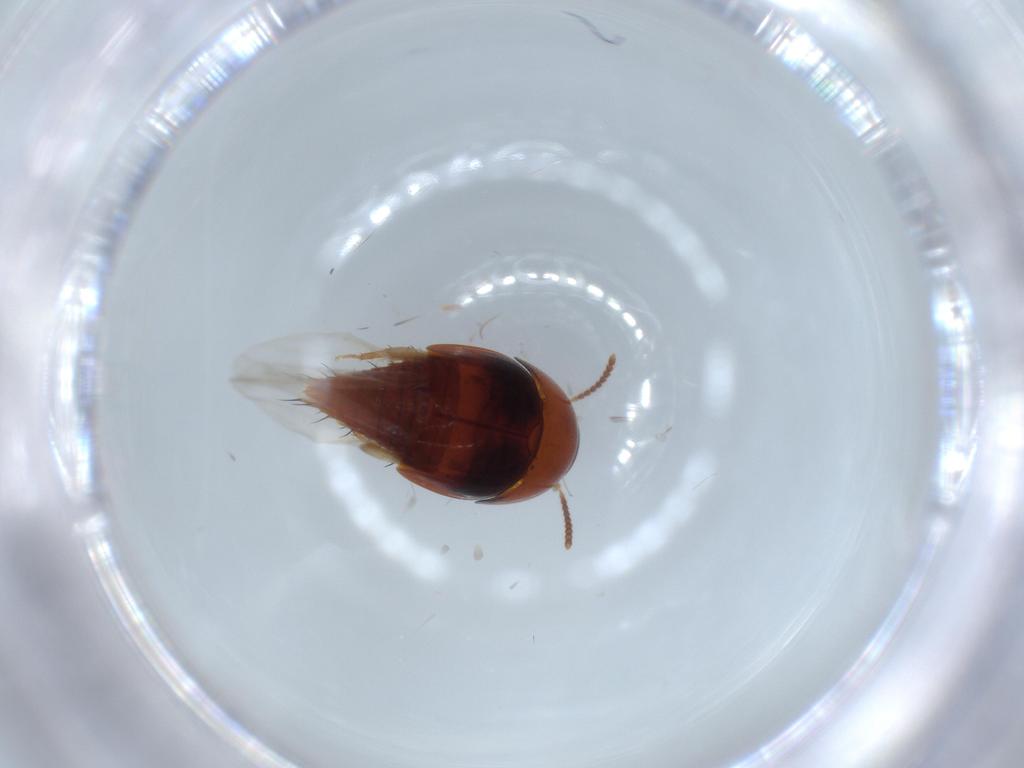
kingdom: Animalia
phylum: Arthropoda
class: Insecta
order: Coleoptera
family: Staphylinidae
